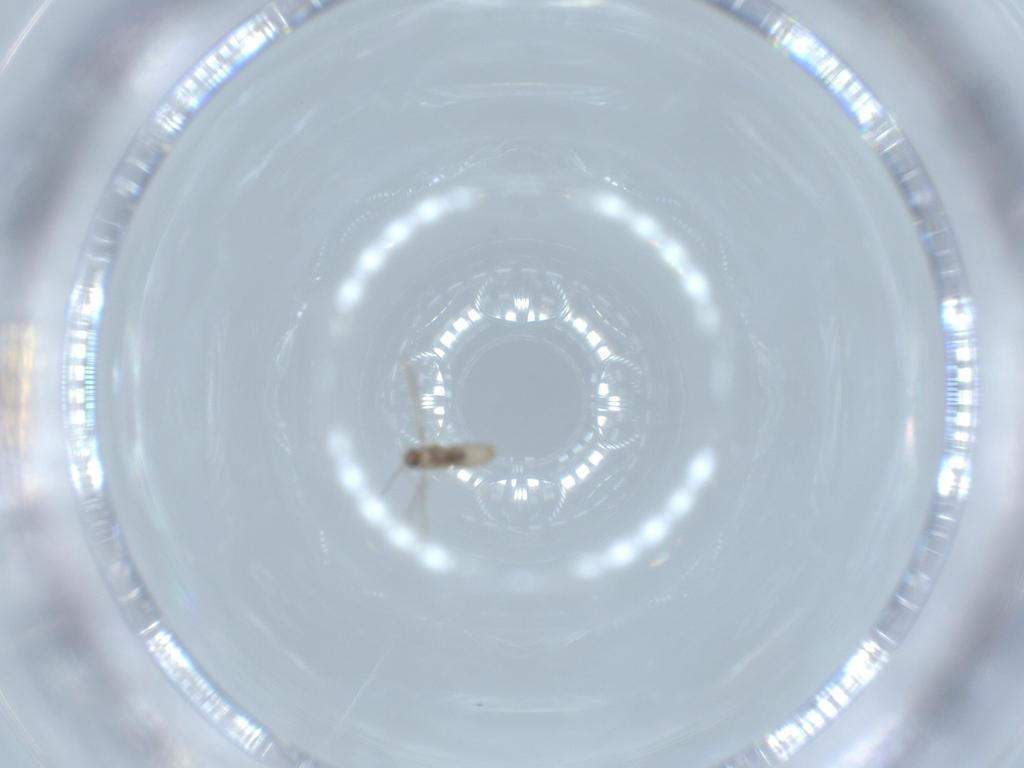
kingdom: Animalia
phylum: Arthropoda
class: Insecta
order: Diptera
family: Cecidomyiidae
